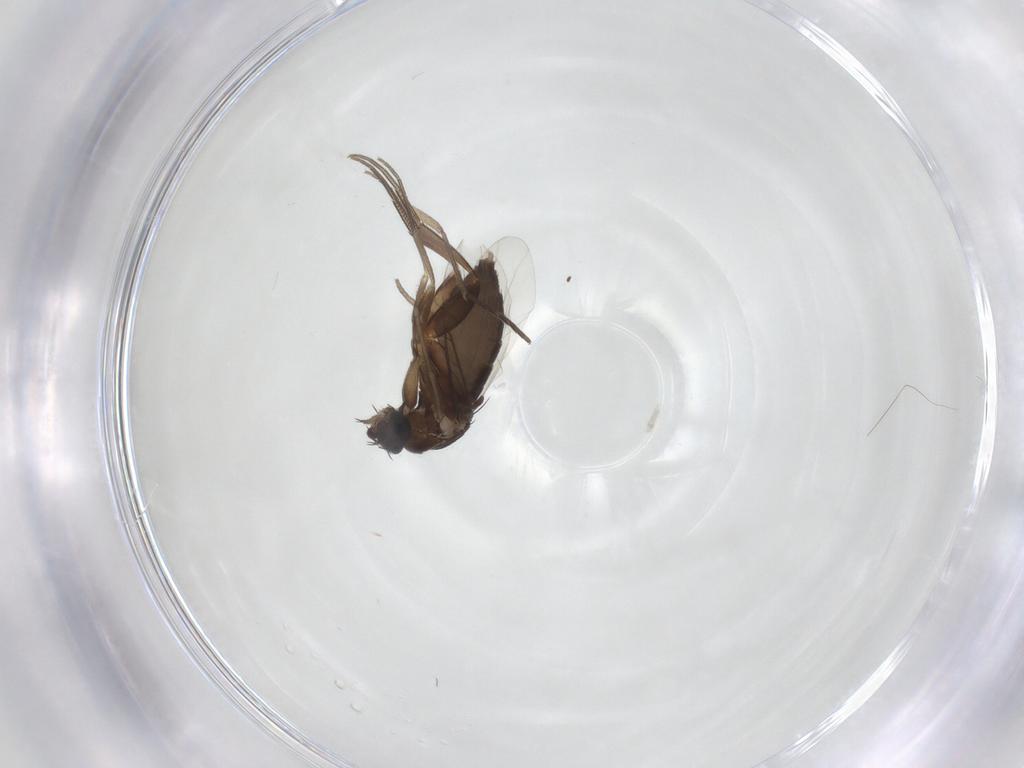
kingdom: Animalia
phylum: Arthropoda
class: Insecta
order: Diptera
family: Sciaridae
